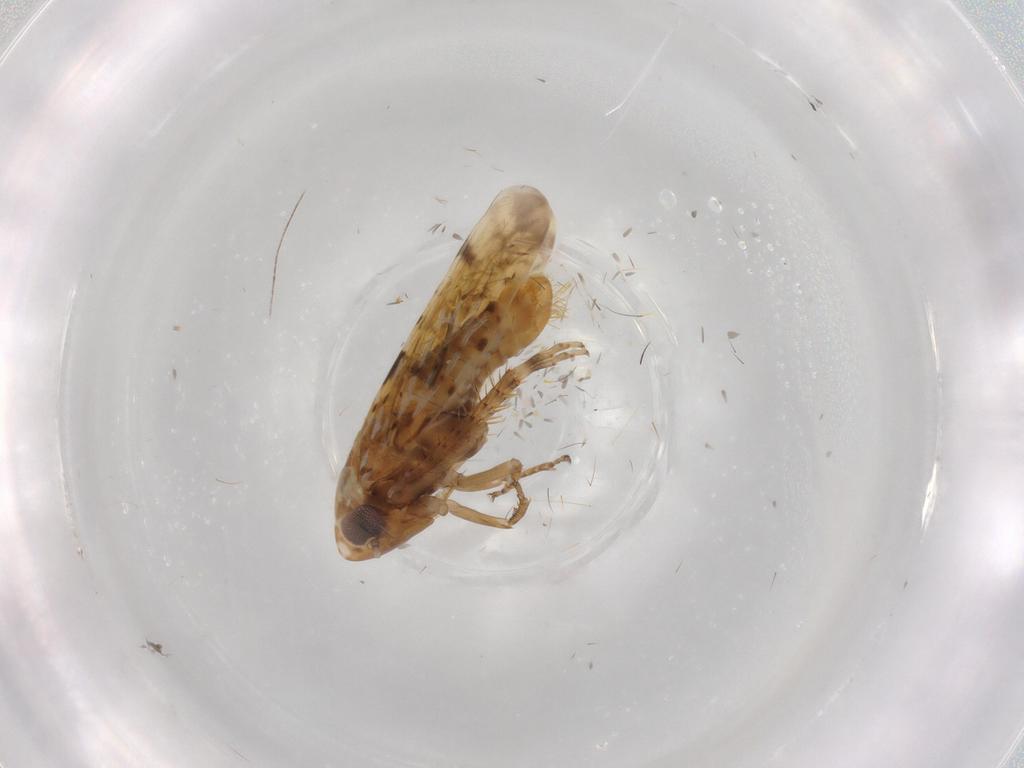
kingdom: Animalia
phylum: Arthropoda
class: Insecta
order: Hemiptera
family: Cicadellidae
